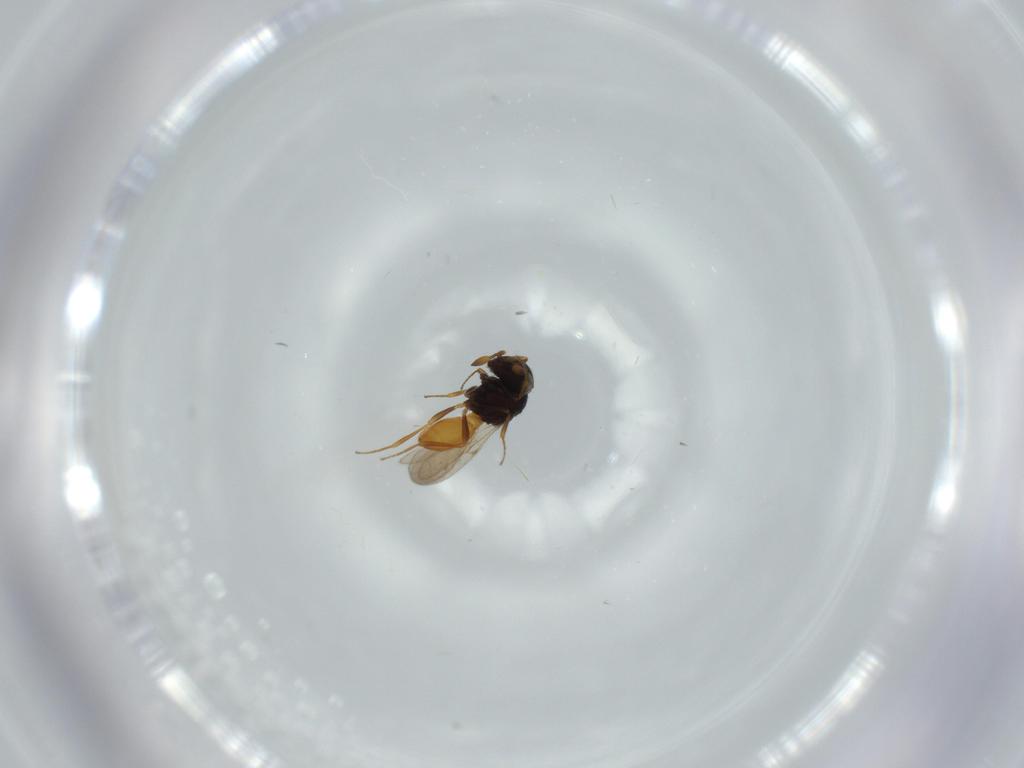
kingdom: Animalia
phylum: Arthropoda
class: Insecta
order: Hymenoptera
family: Scelionidae
